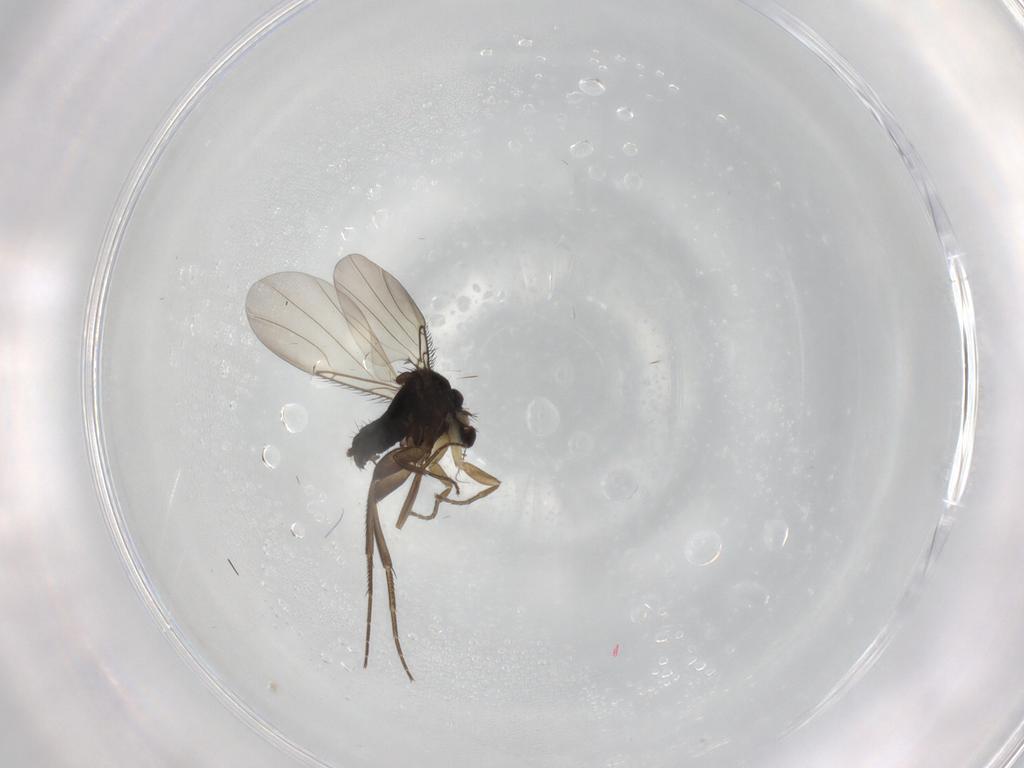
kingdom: Animalia
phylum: Arthropoda
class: Insecta
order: Diptera
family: Phoridae
